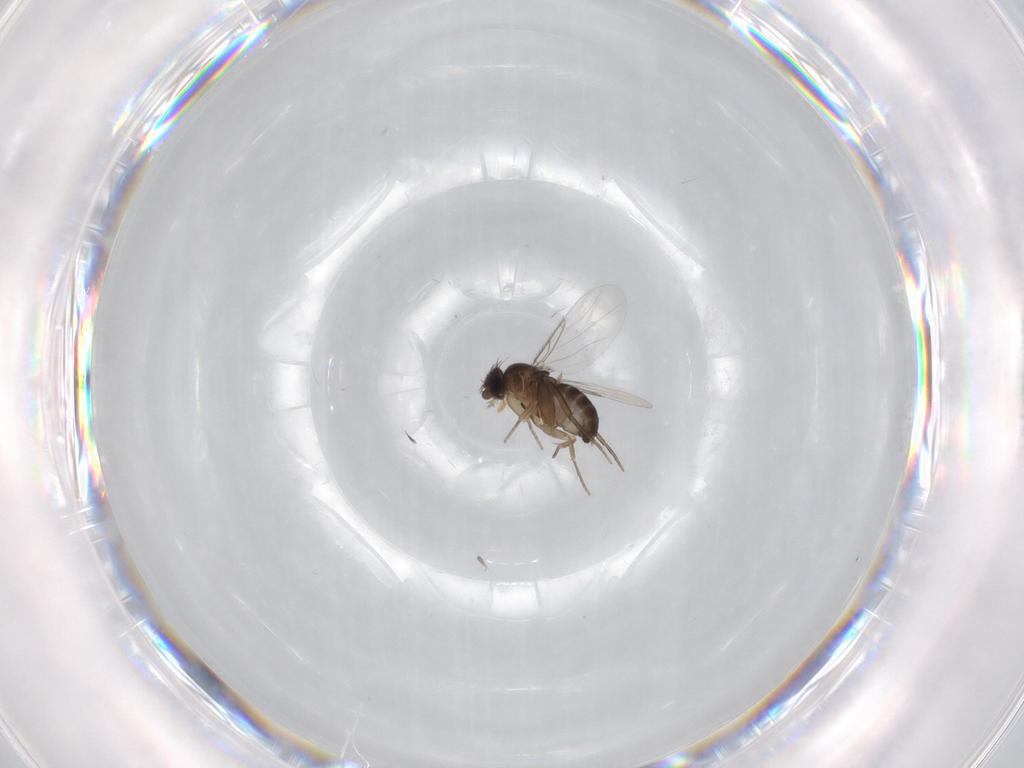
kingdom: Animalia
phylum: Arthropoda
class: Insecta
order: Diptera
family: Phoridae
